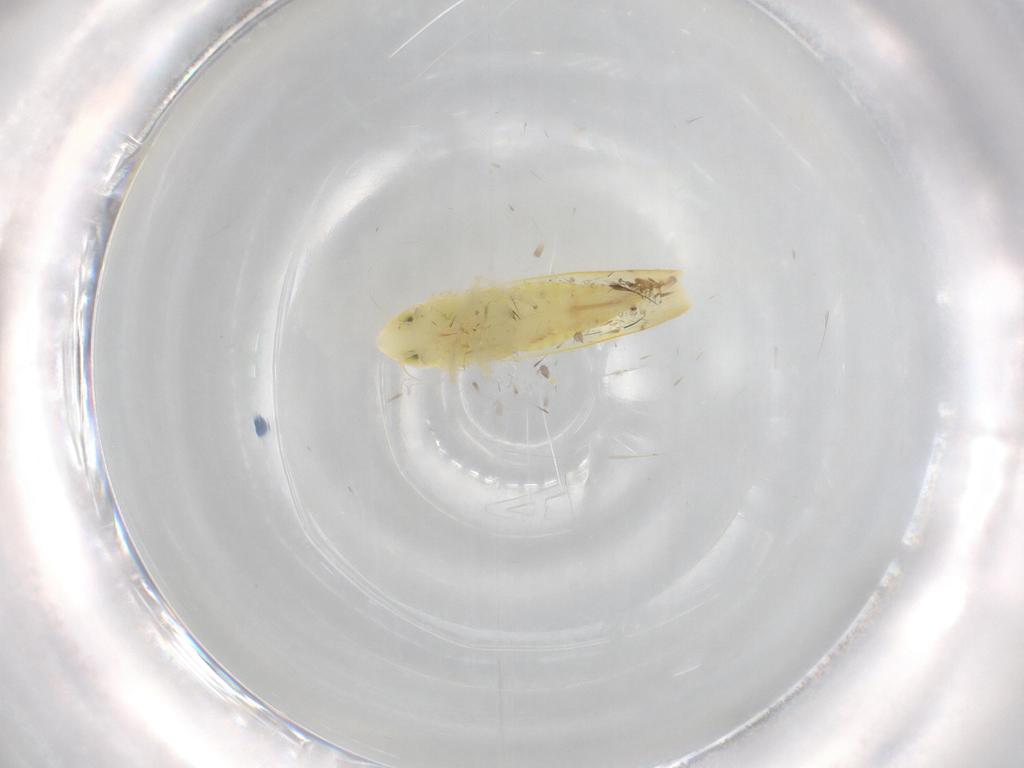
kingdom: Animalia
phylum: Arthropoda
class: Insecta
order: Hemiptera
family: Cicadellidae
